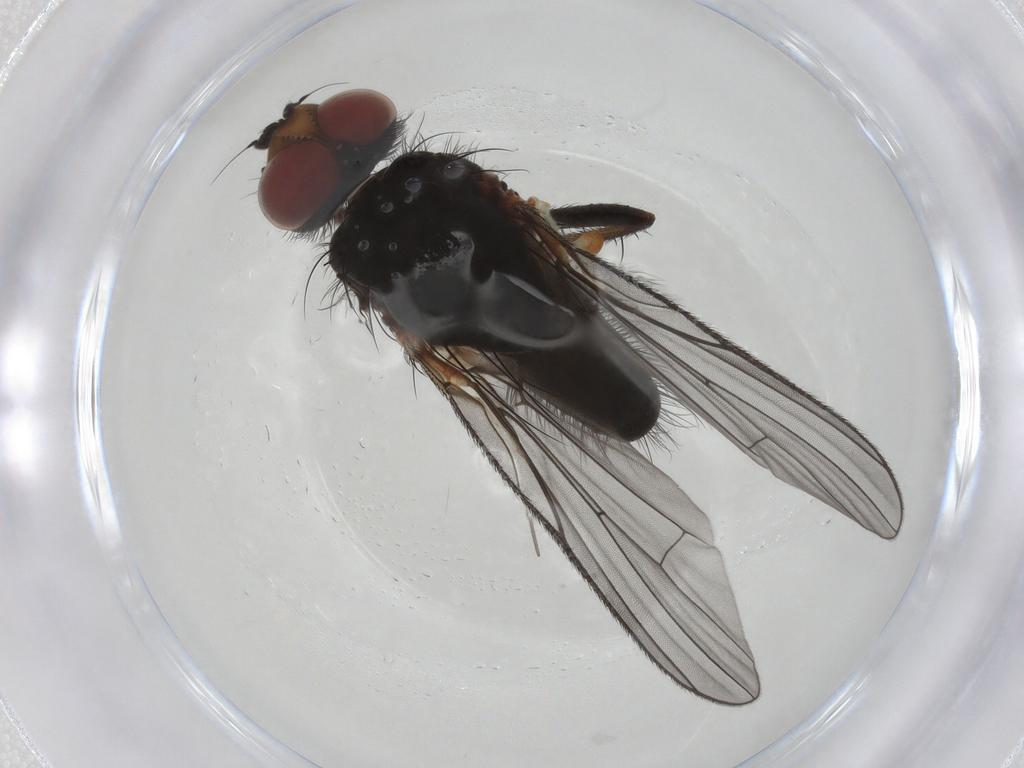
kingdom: Animalia
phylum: Arthropoda
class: Insecta
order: Diptera
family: Anthomyiidae
